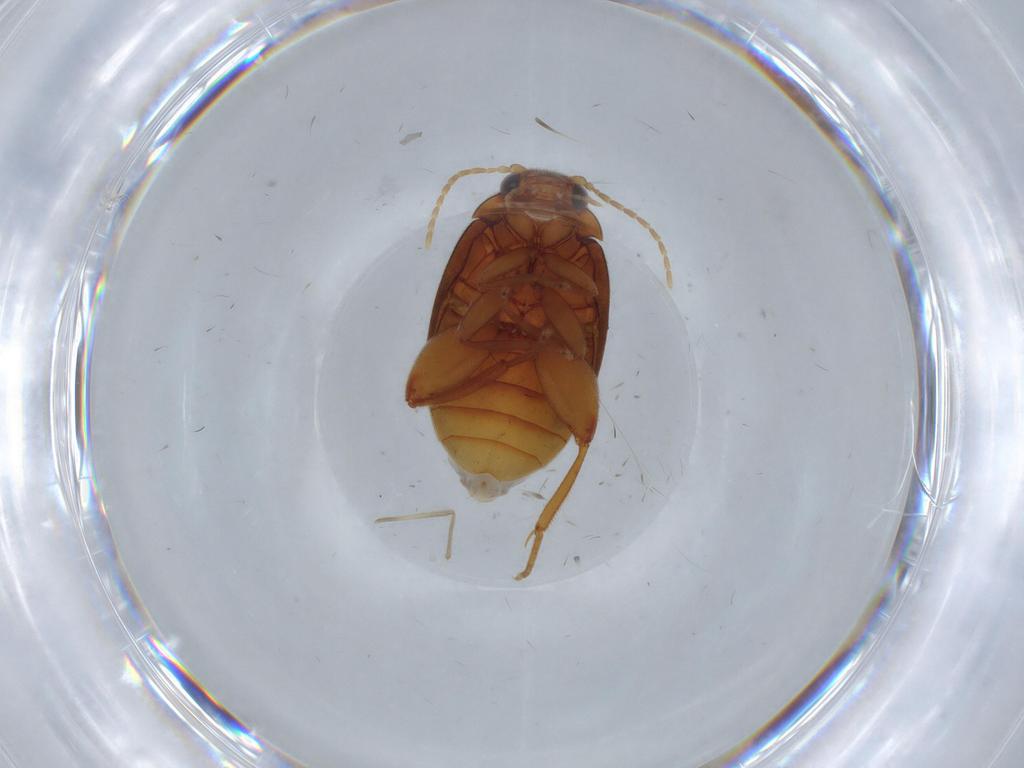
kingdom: Animalia
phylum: Arthropoda
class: Insecta
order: Coleoptera
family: Scirtidae
